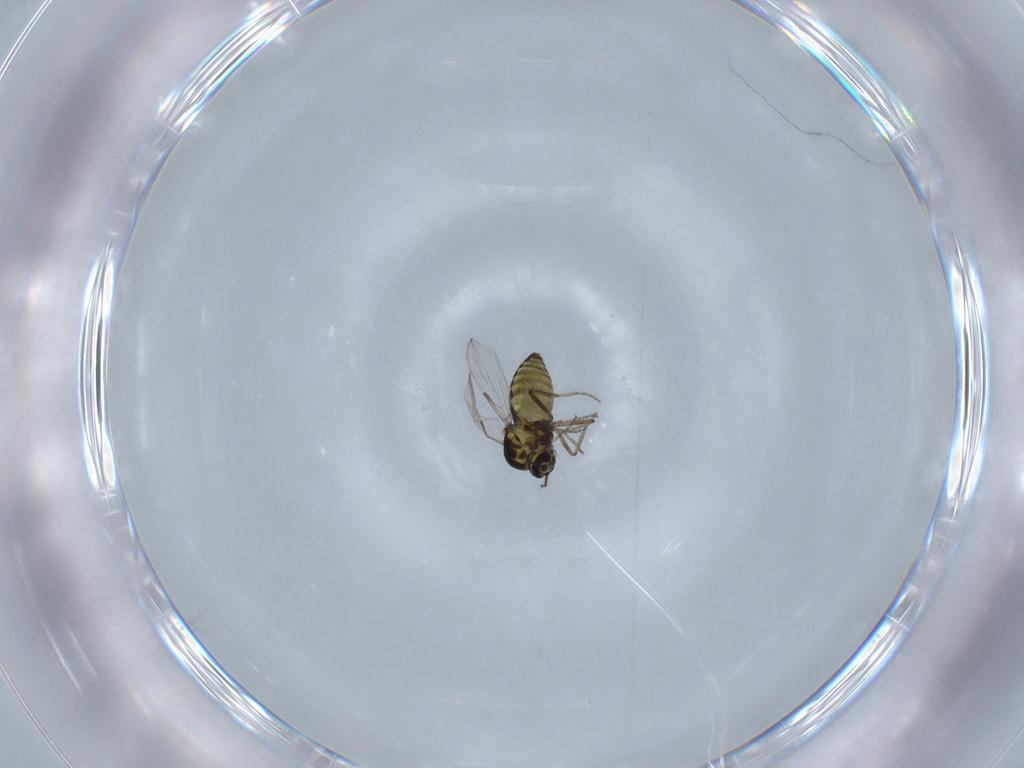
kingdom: Animalia
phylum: Arthropoda
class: Insecta
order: Diptera
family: Ceratopogonidae
